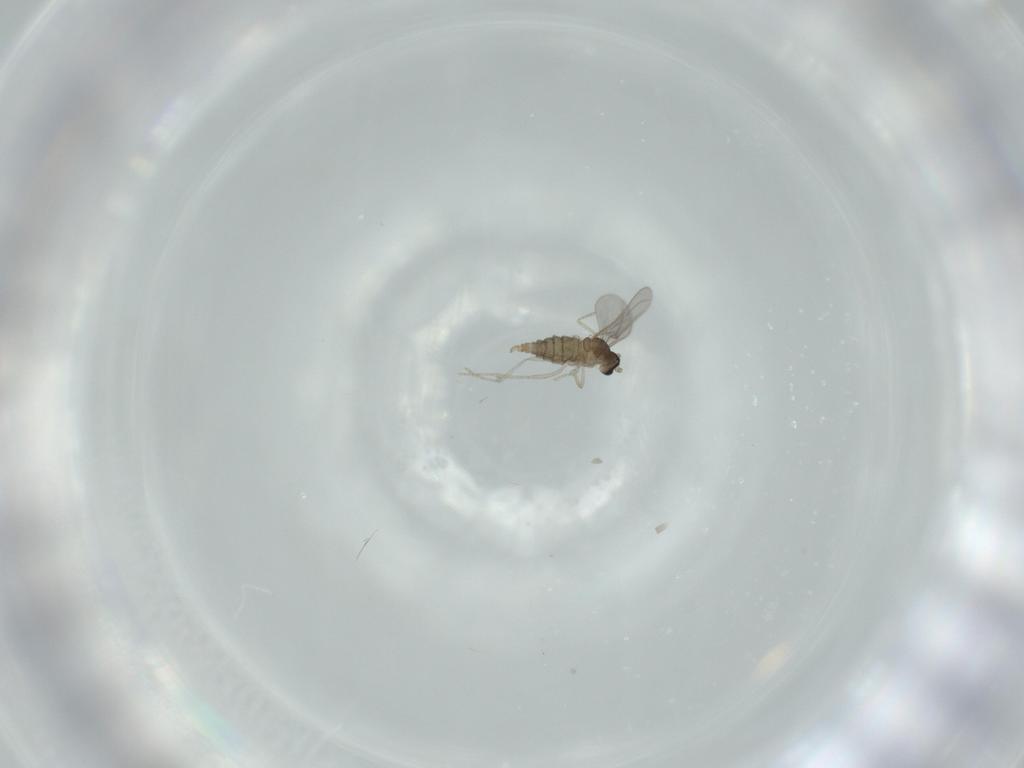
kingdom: Animalia
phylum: Arthropoda
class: Insecta
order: Diptera
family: Cecidomyiidae
